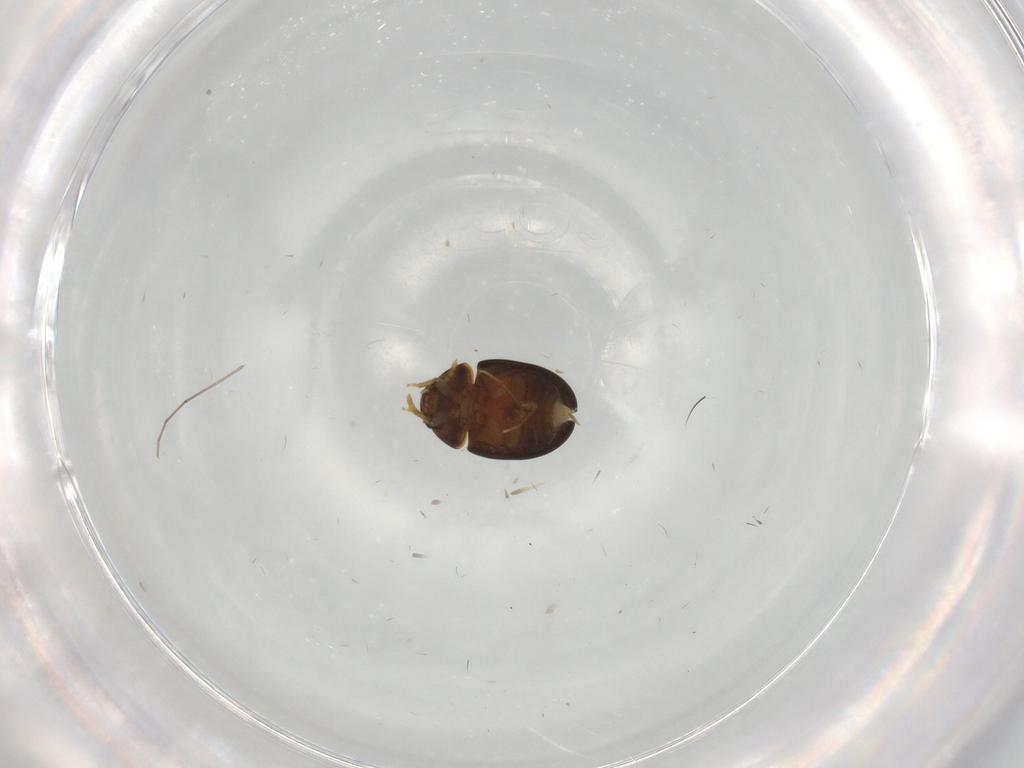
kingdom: Animalia
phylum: Arthropoda
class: Insecta
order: Coleoptera
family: Phalacridae
